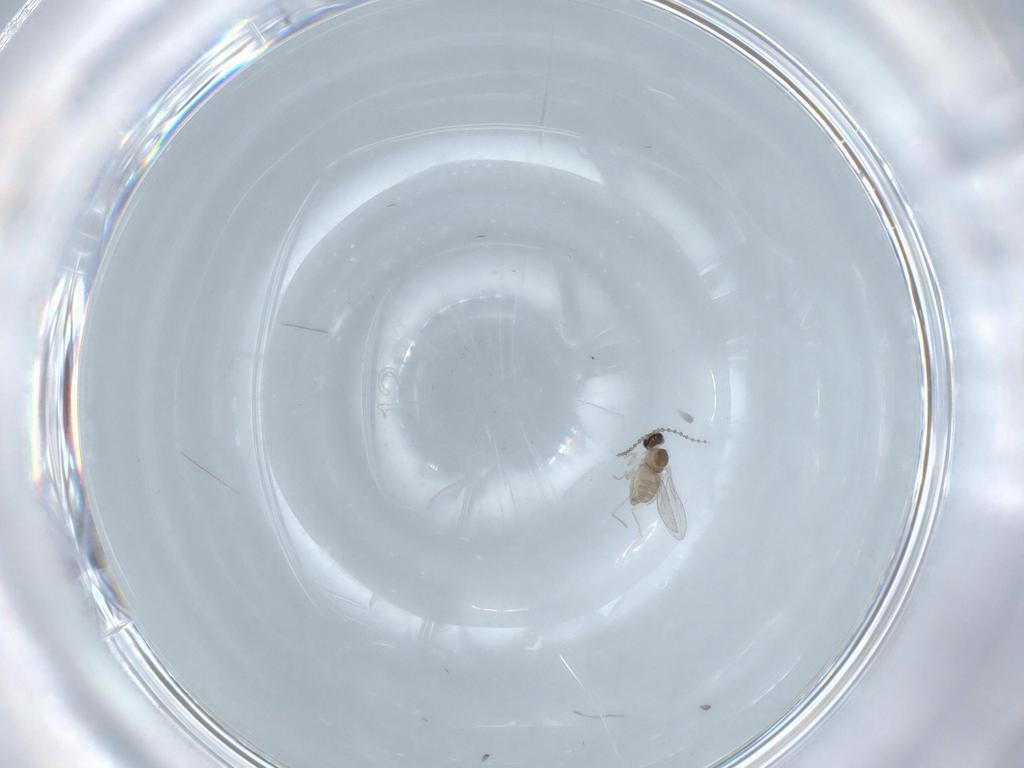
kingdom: Animalia
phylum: Arthropoda
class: Insecta
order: Diptera
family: Cecidomyiidae
